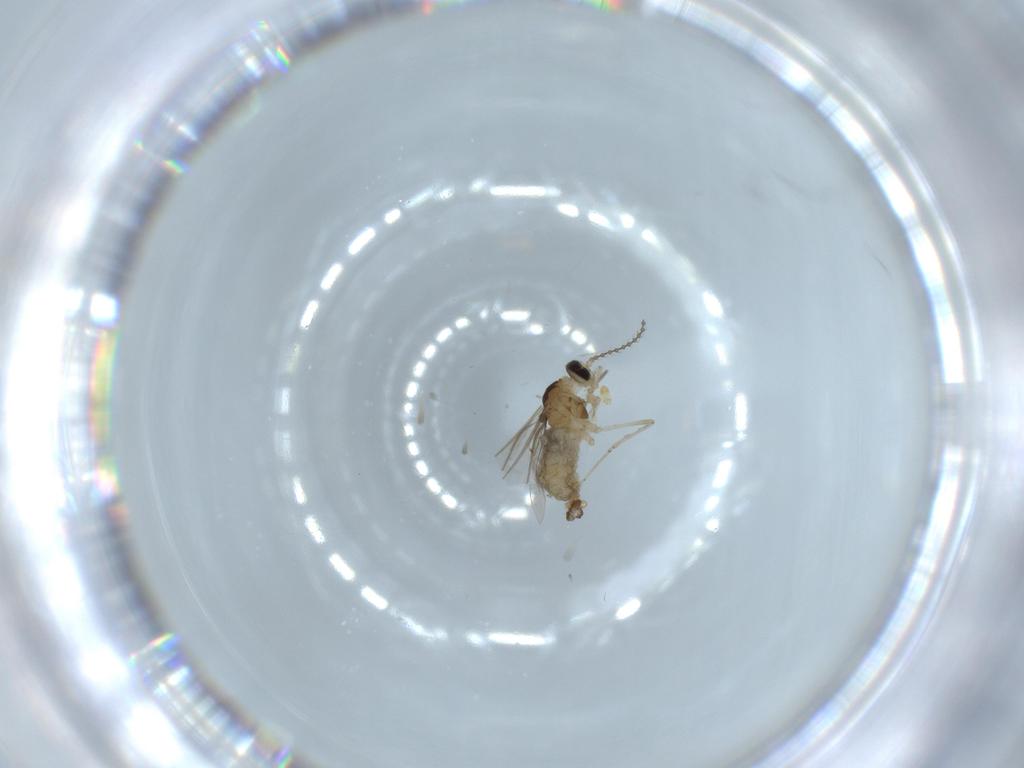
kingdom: Animalia
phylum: Arthropoda
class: Insecta
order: Diptera
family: Cecidomyiidae
